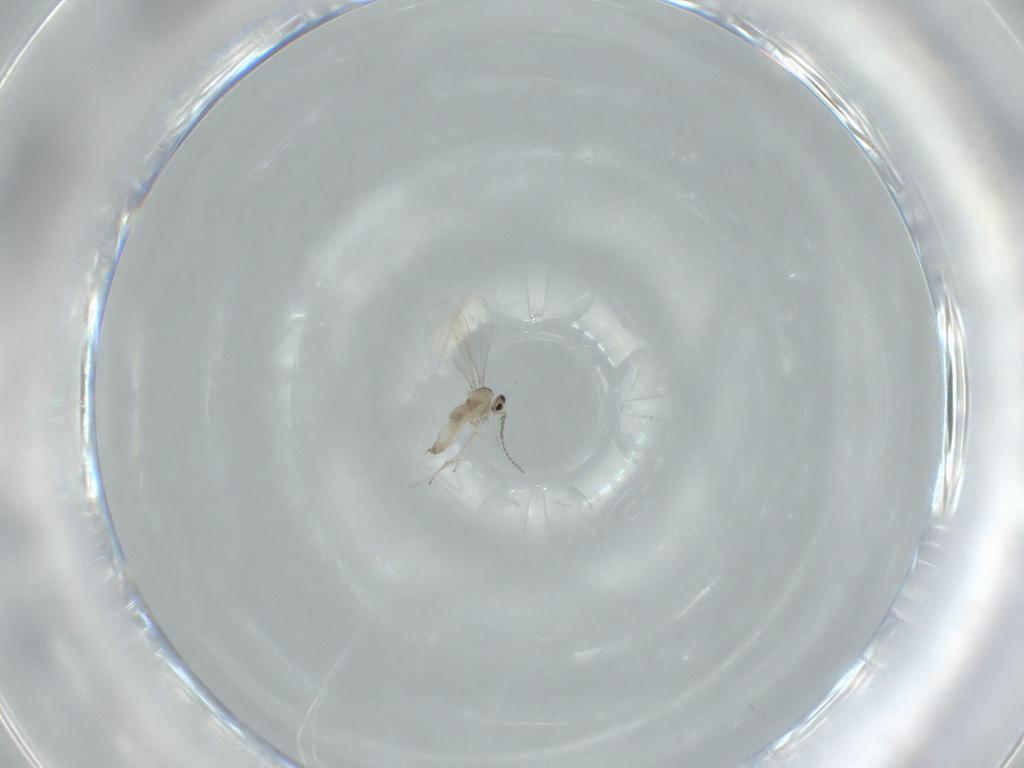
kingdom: Animalia
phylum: Arthropoda
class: Insecta
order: Diptera
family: Cecidomyiidae
